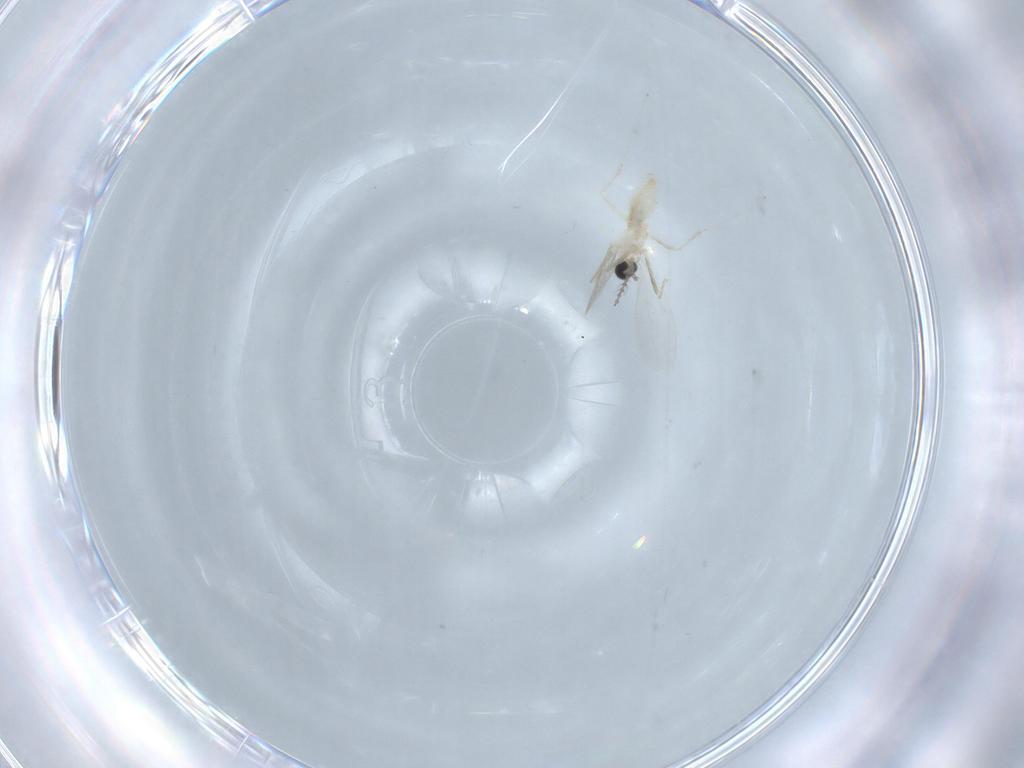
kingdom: Animalia
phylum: Arthropoda
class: Insecta
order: Diptera
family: Chironomidae
